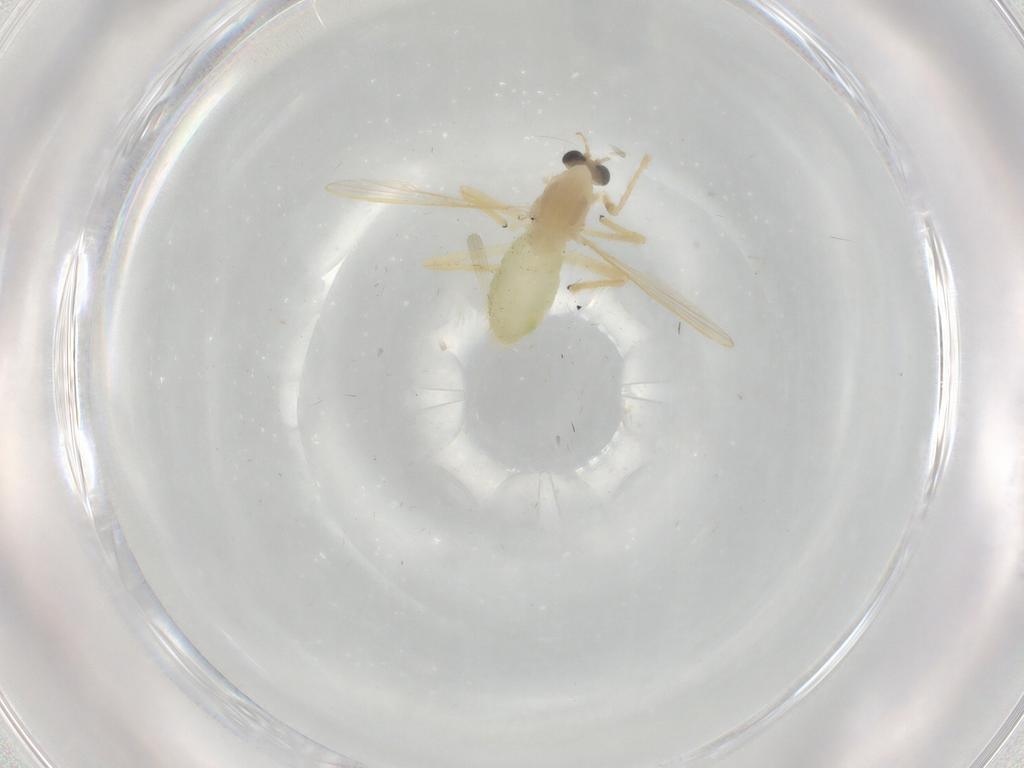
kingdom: Animalia
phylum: Arthropoda
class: Insecta
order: Diptera
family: Chironomidae
